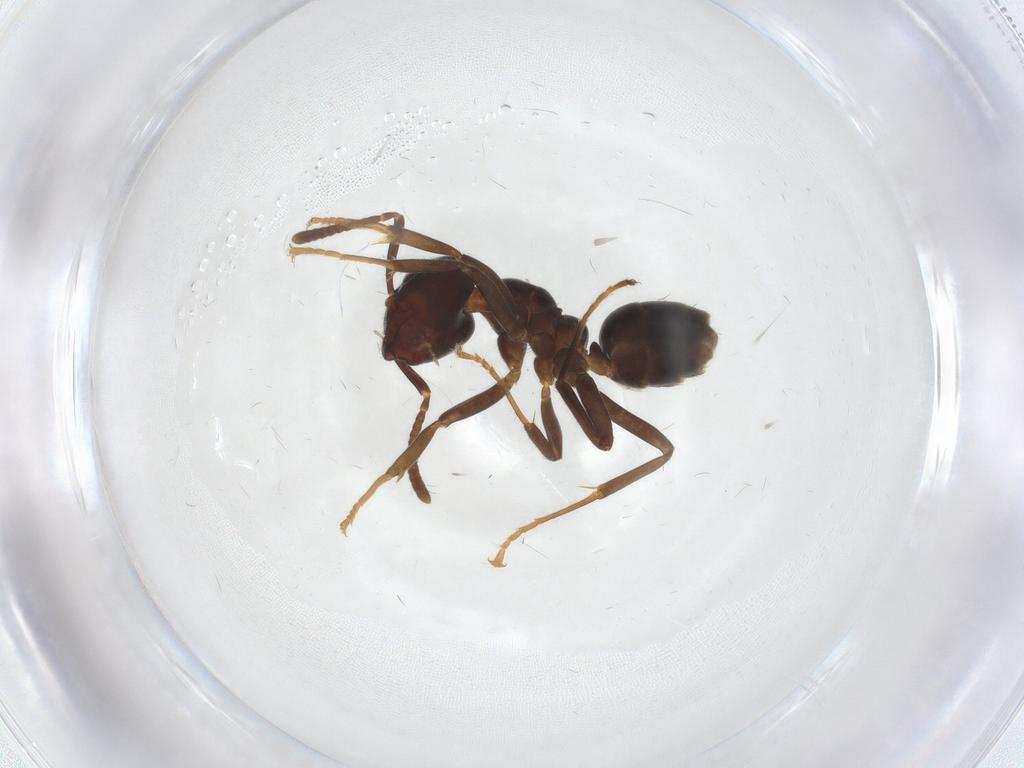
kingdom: Animalia
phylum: Arthropoda
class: Insecta
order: Hymenoptera
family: Formicidae
